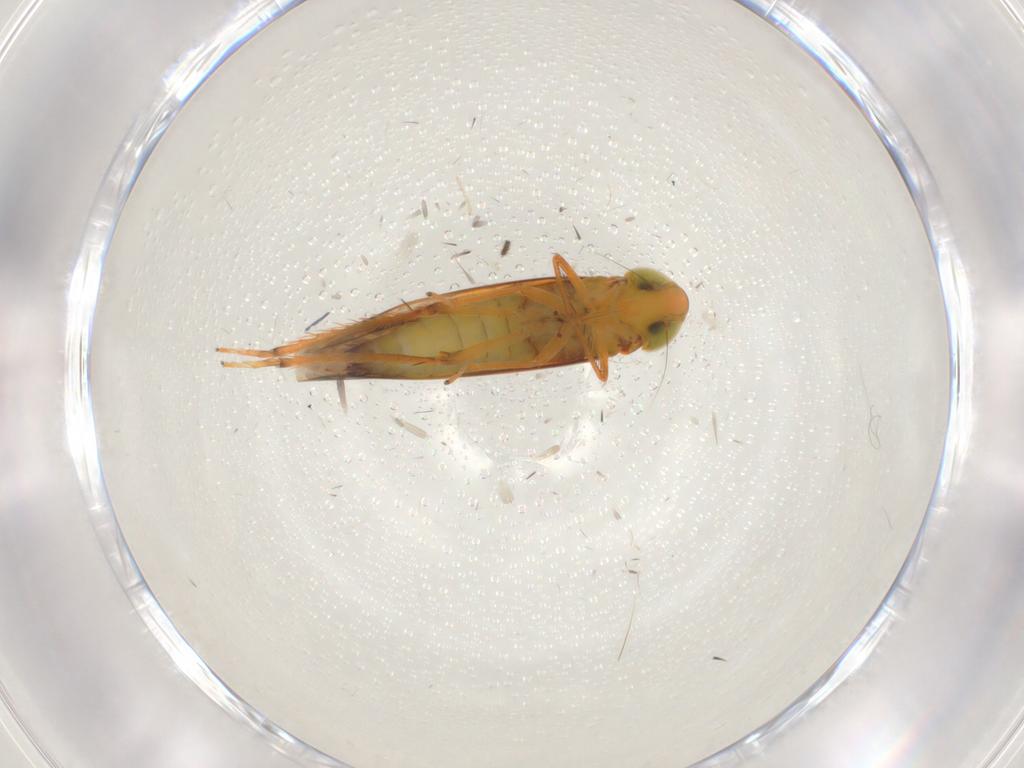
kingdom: Animalia
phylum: Arthropoda
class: Insecta
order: Hemiptera
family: Cicadellidae
